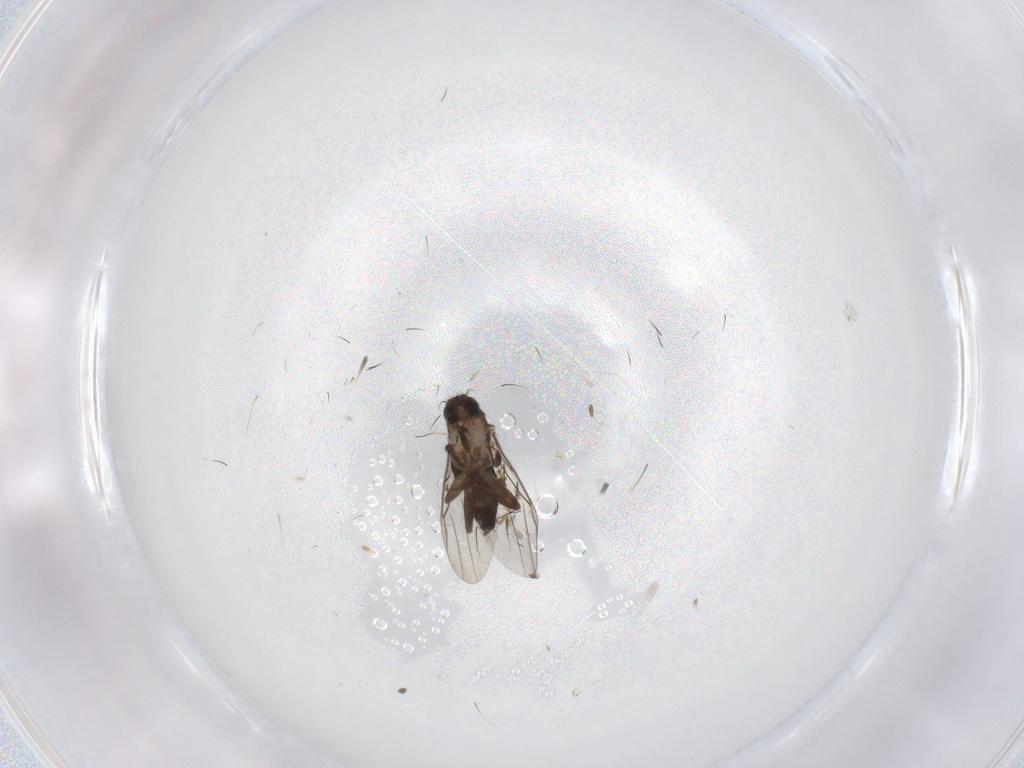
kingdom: Animalia
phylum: Arthropoda
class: Insecta
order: Diptera
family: Phoridae
